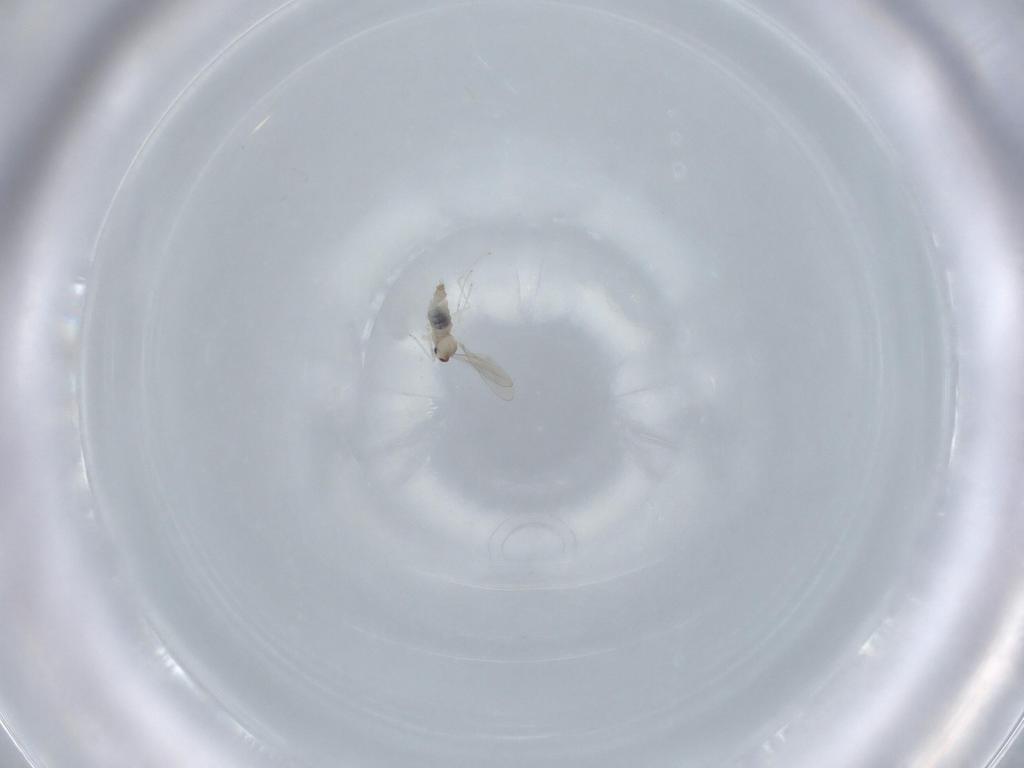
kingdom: Animalia
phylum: Arthropoda
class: Insecta
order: Diptera
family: Cecidomyiidae
